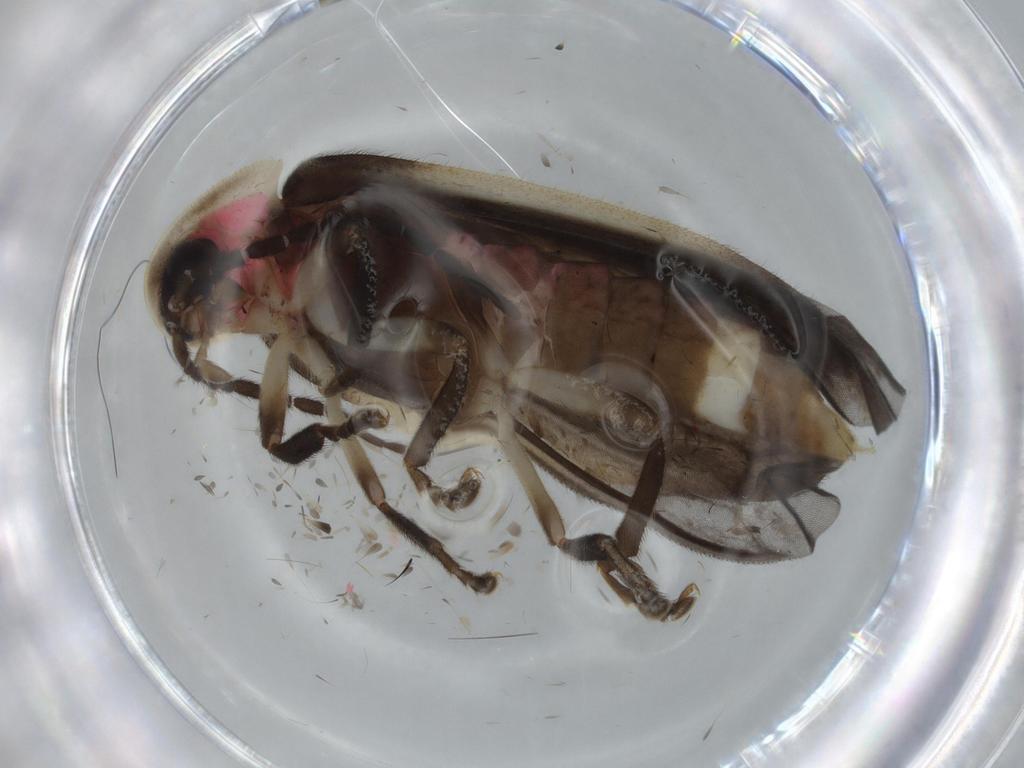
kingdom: Animalia
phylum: Arthropoda
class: Insecta
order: Coleoptera
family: Lampyridae
